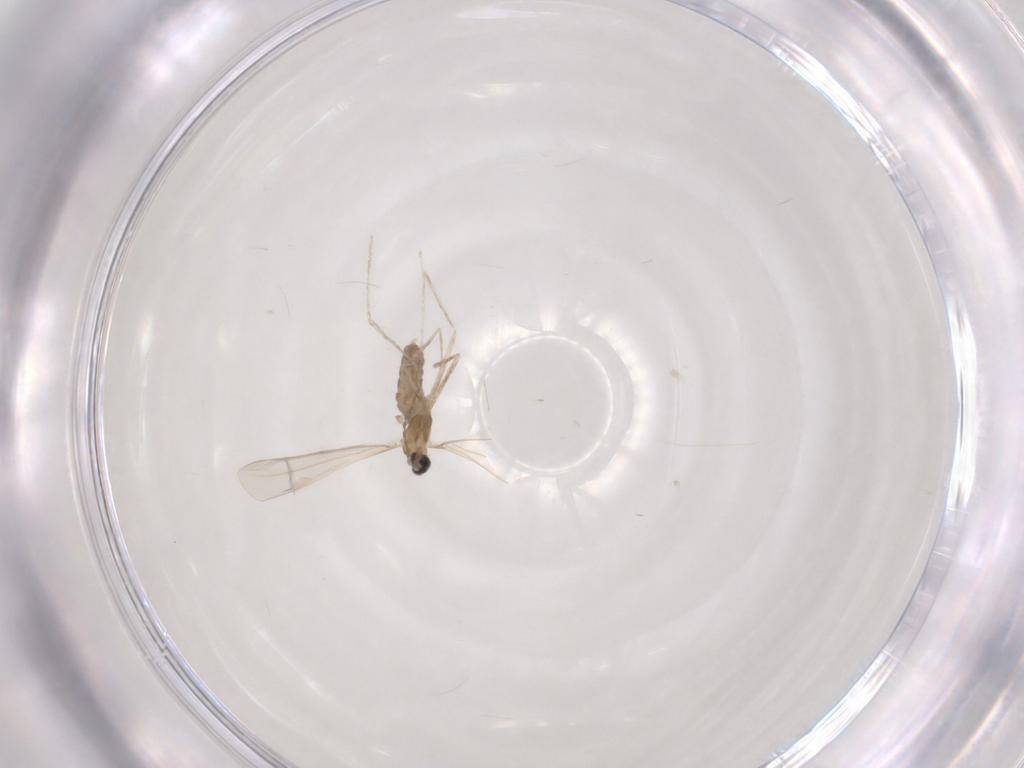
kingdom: Animalia
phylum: Arthropoda
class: Insecta
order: Diptera
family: Cecidomyiidae
